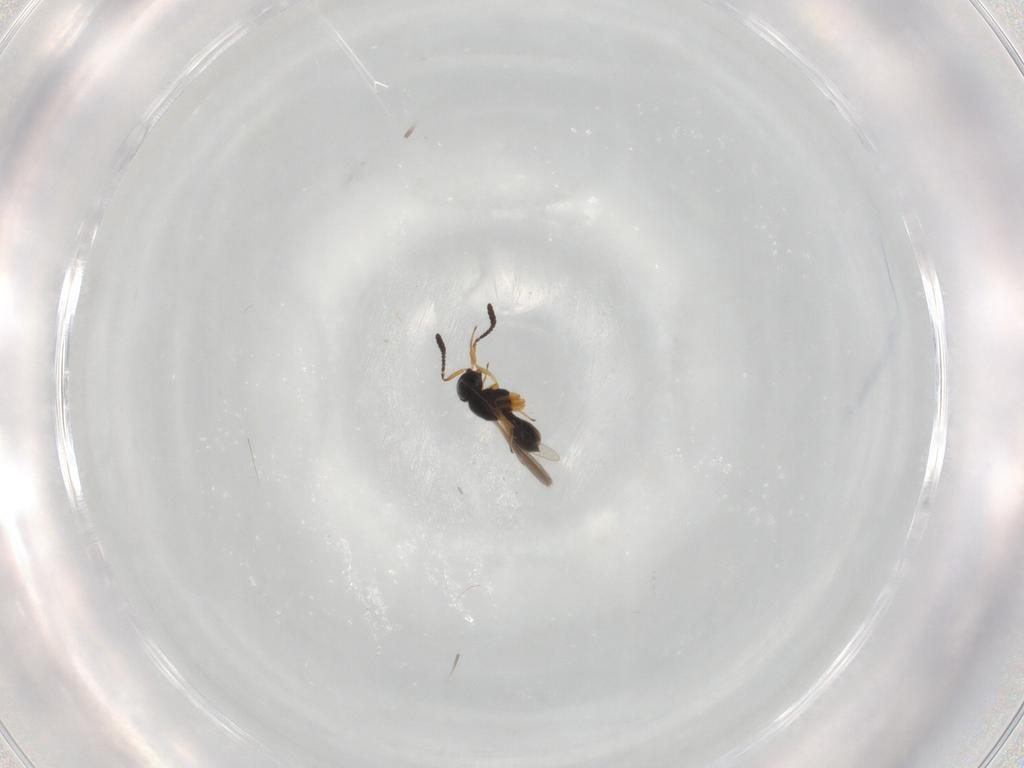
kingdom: Animalia
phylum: Arthropoda
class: Insecta
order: Hymenoptera
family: Scelionidae
